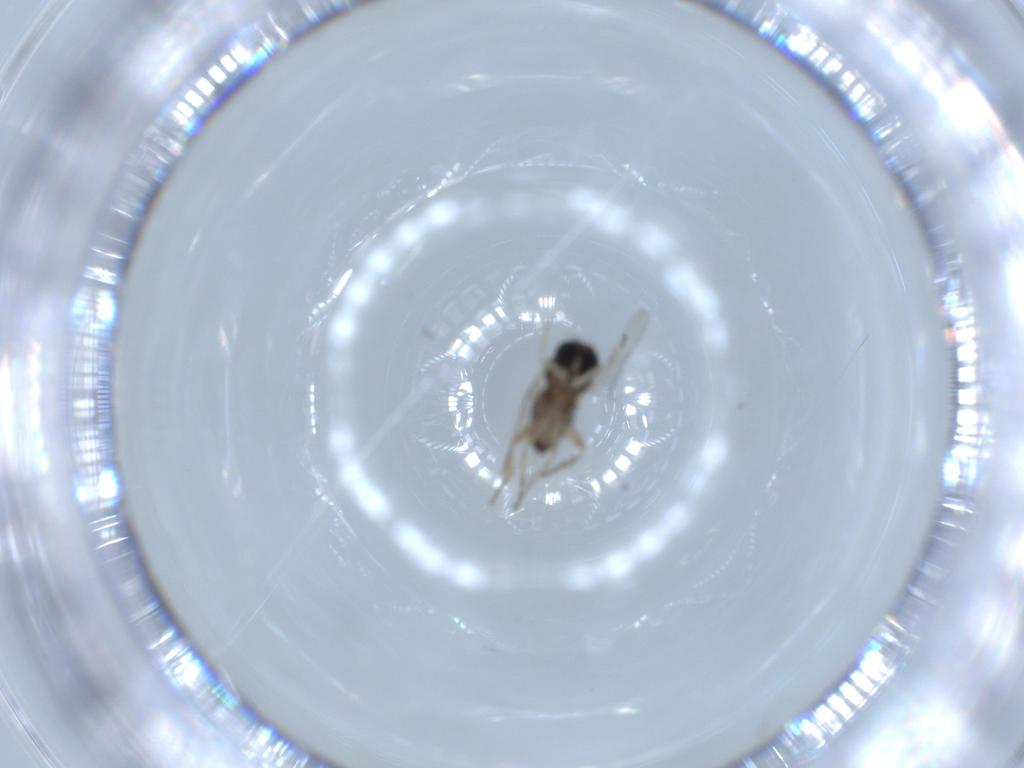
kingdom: Animalia
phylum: Arthropoda
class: Insecta
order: Diptera
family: Sciaridae
